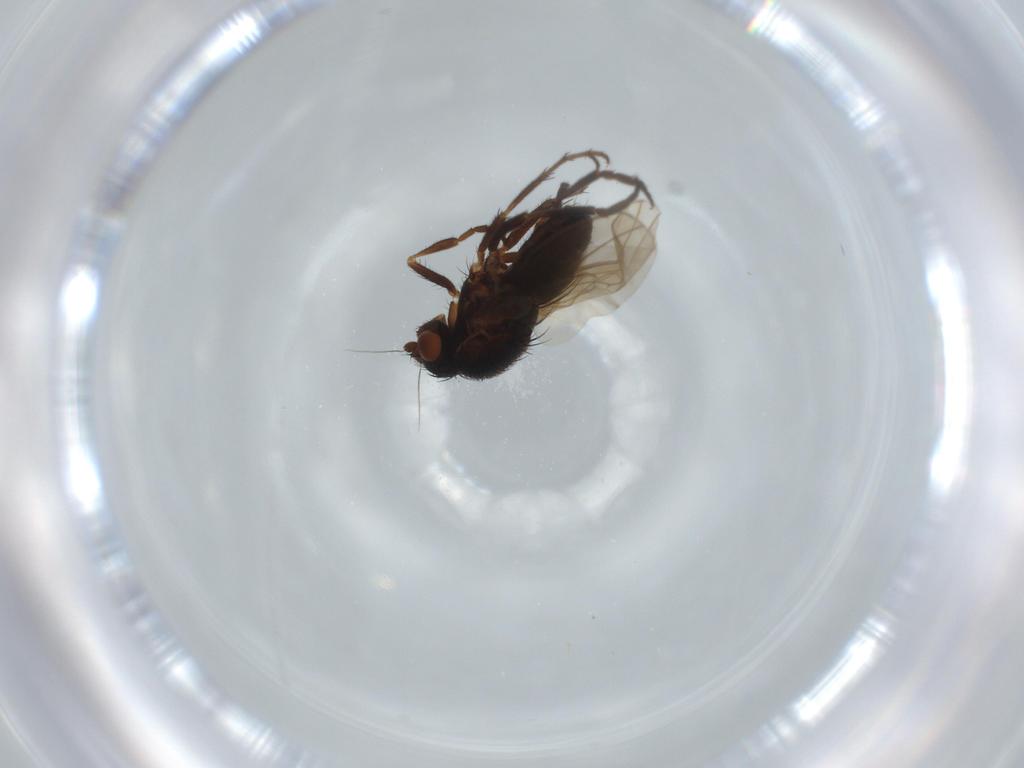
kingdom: Animalia
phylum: Arthropoda
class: Insecta
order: Diptera
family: Sphaeroceridae
